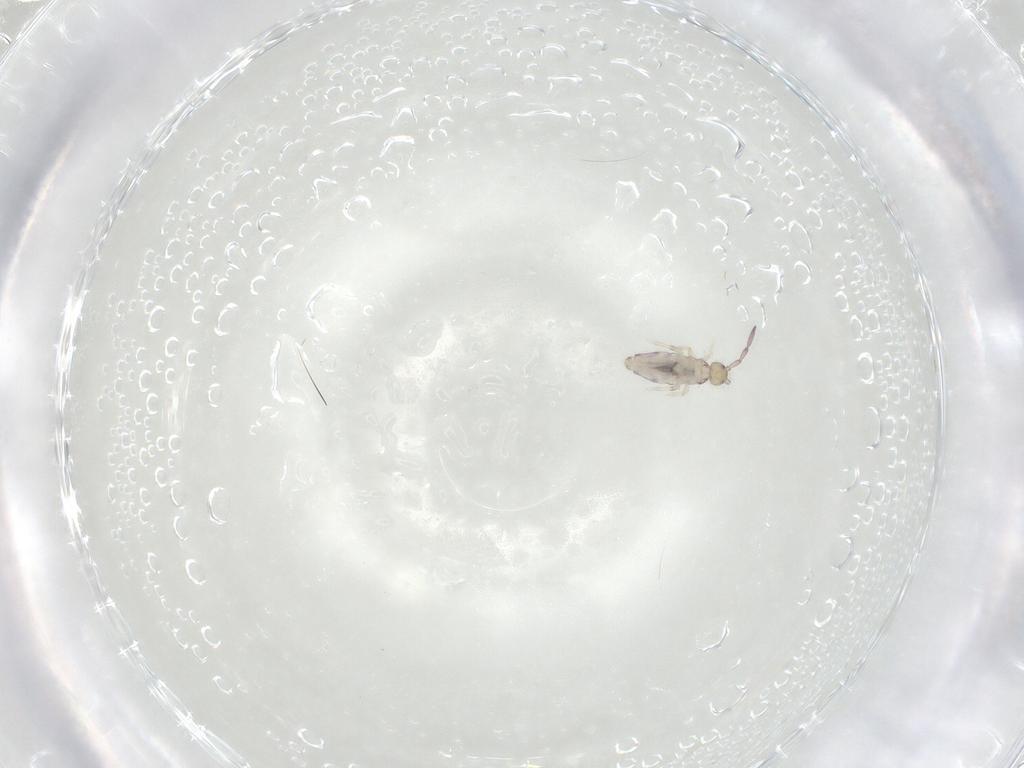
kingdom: Animalia
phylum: Arthropoda
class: Collembola
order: Entomobryomorpha
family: Entomobryidae
